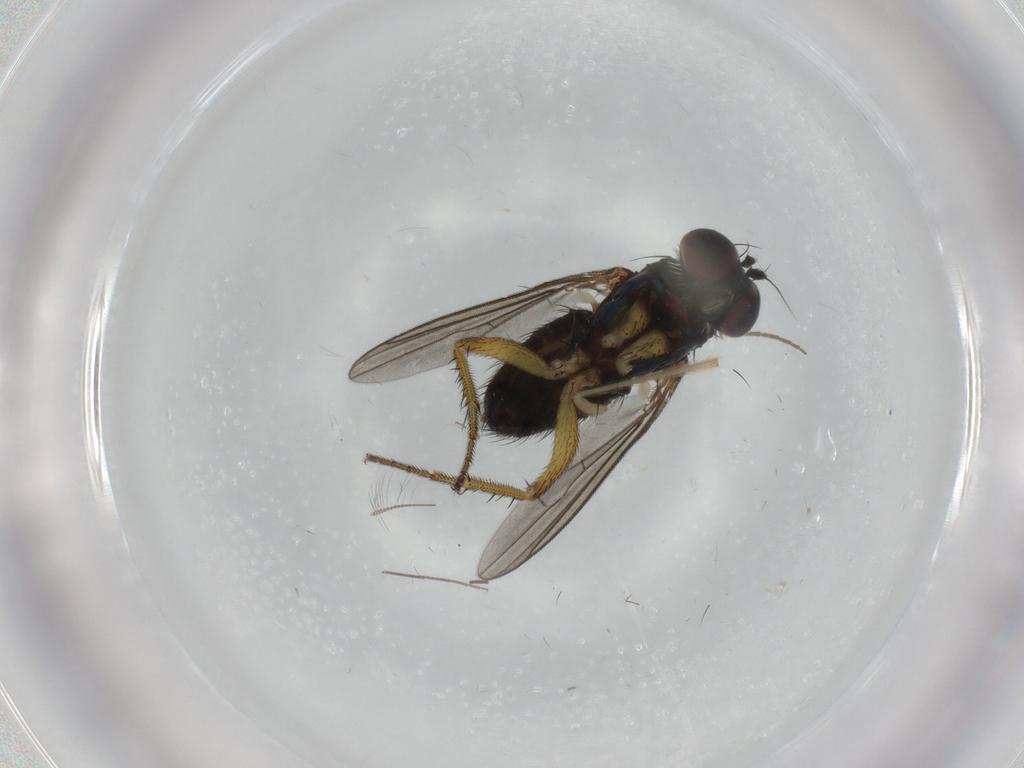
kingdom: Animalia
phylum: Arthropoda
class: Insecta
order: Diptera
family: Dolichopodidae
